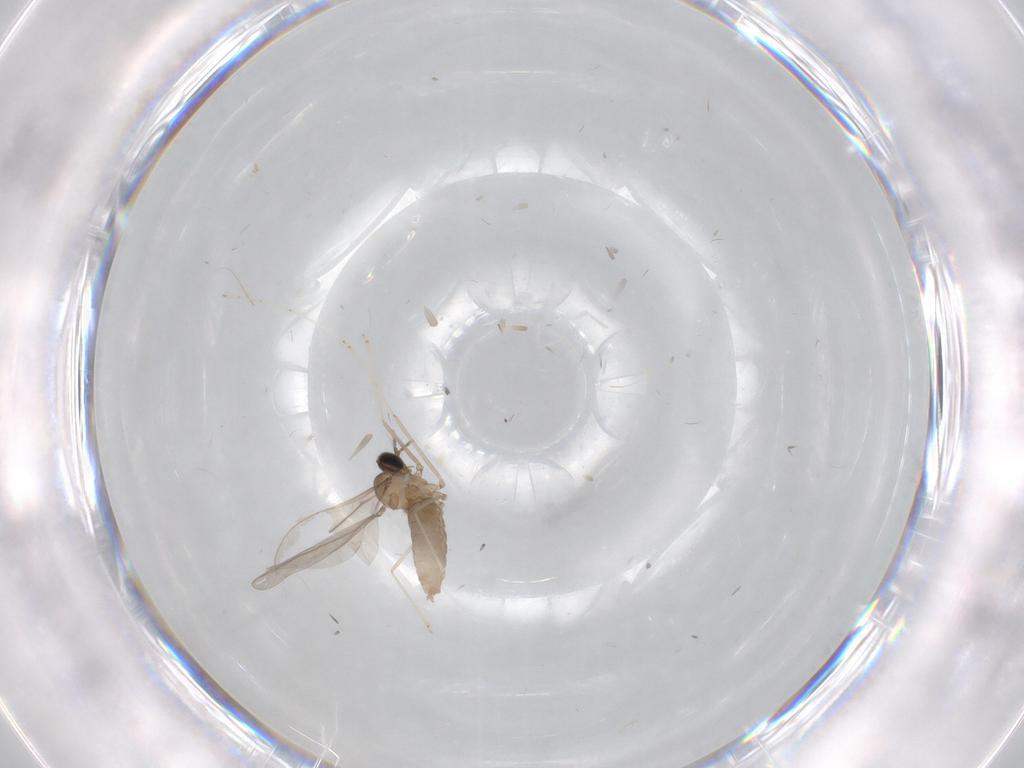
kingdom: Animalia
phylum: Arthropoda
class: Insecta
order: Diptera
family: Cecidomyiidae
